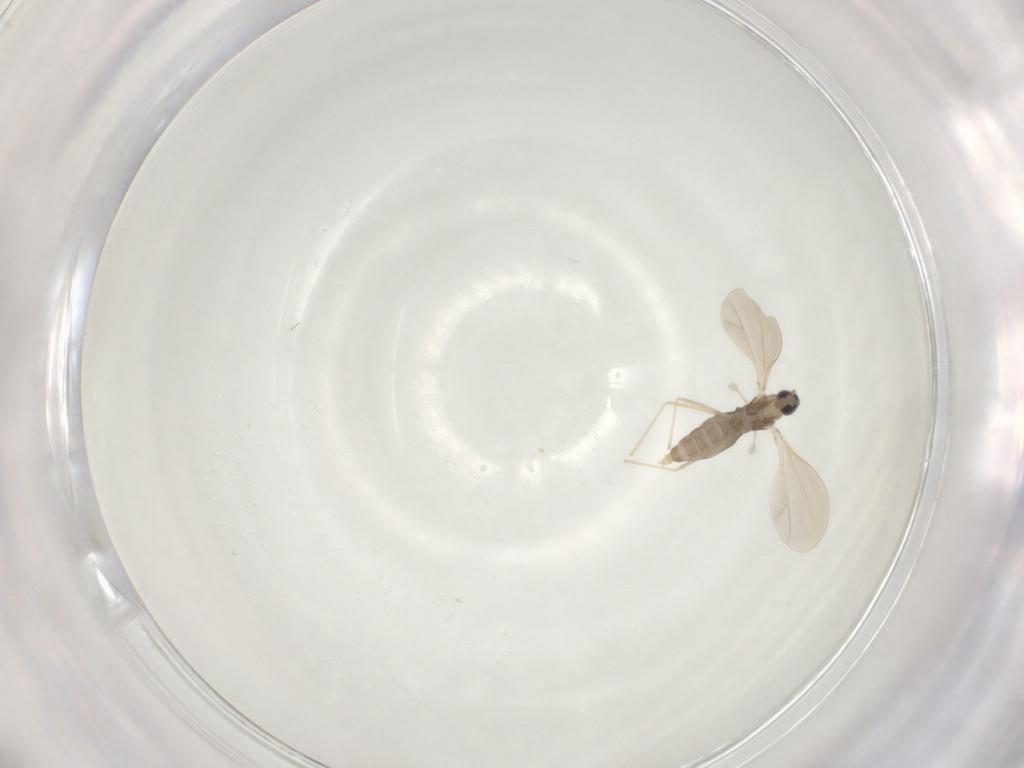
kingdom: Animalia
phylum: Arthropoda
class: Insecta
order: Diptera
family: Cecidomyiidae
